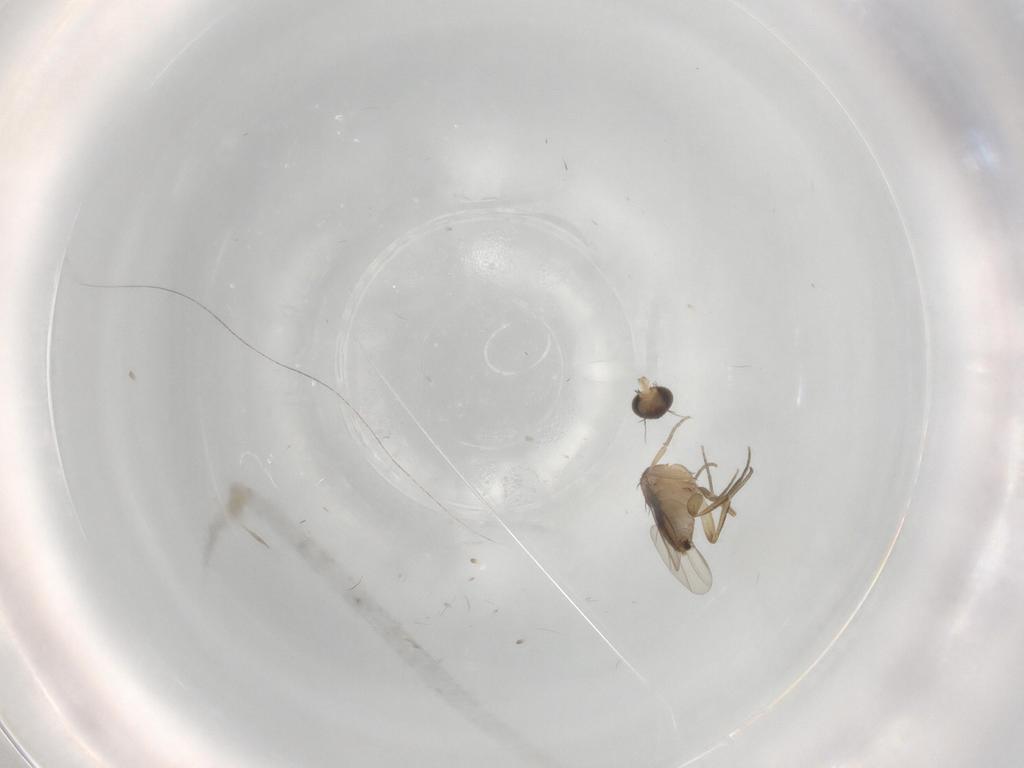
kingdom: Animalia
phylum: Arthropoda
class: Insecta
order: Diptera
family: Phoridae
